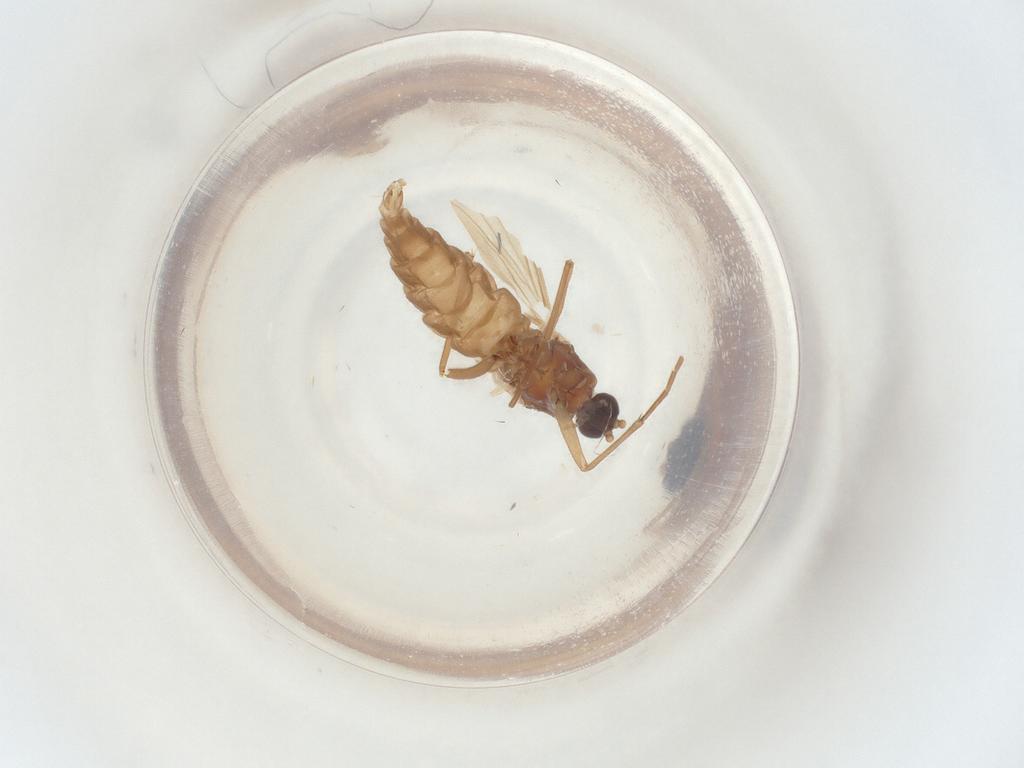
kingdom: Animalia
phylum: Arthropoda
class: Insecta
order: Diptera
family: Sciaridae
